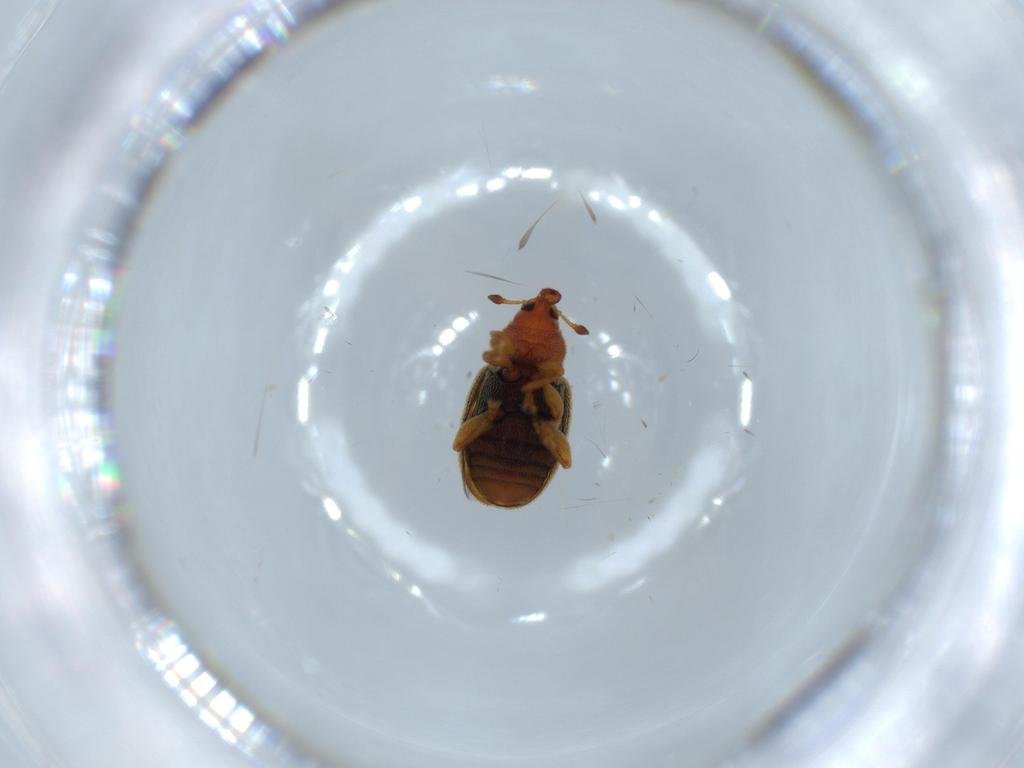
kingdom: Animalia
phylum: Arthropoda
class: Insecta
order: Coleoptera
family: Curculionidae
